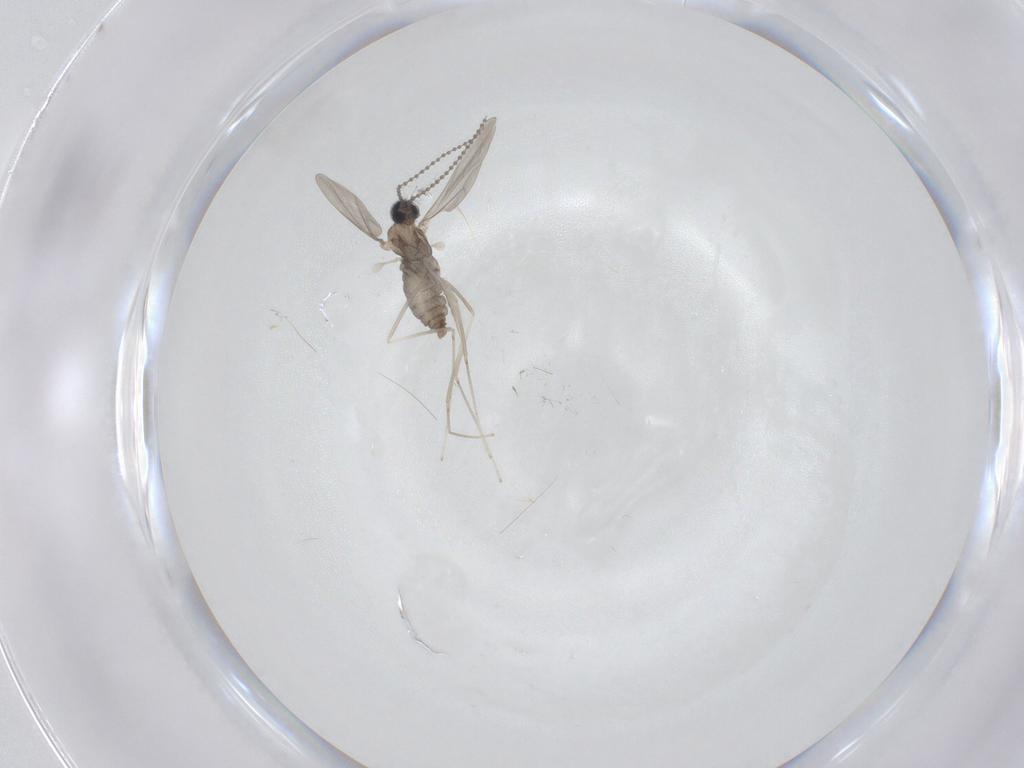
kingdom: Animalia
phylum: Arthropoda
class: Insecta
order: Diptera
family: Cecidomyiidae
